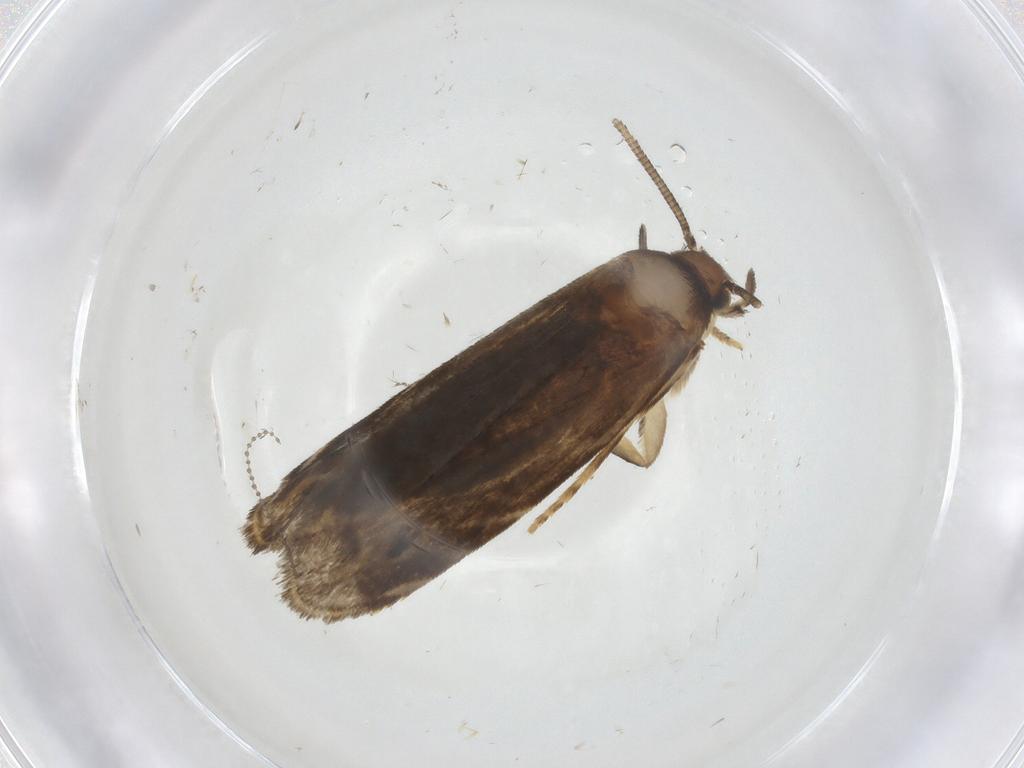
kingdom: Animalia
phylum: Arthropoda
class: Insecta
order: Lepidoptera
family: Dryadaulidae
